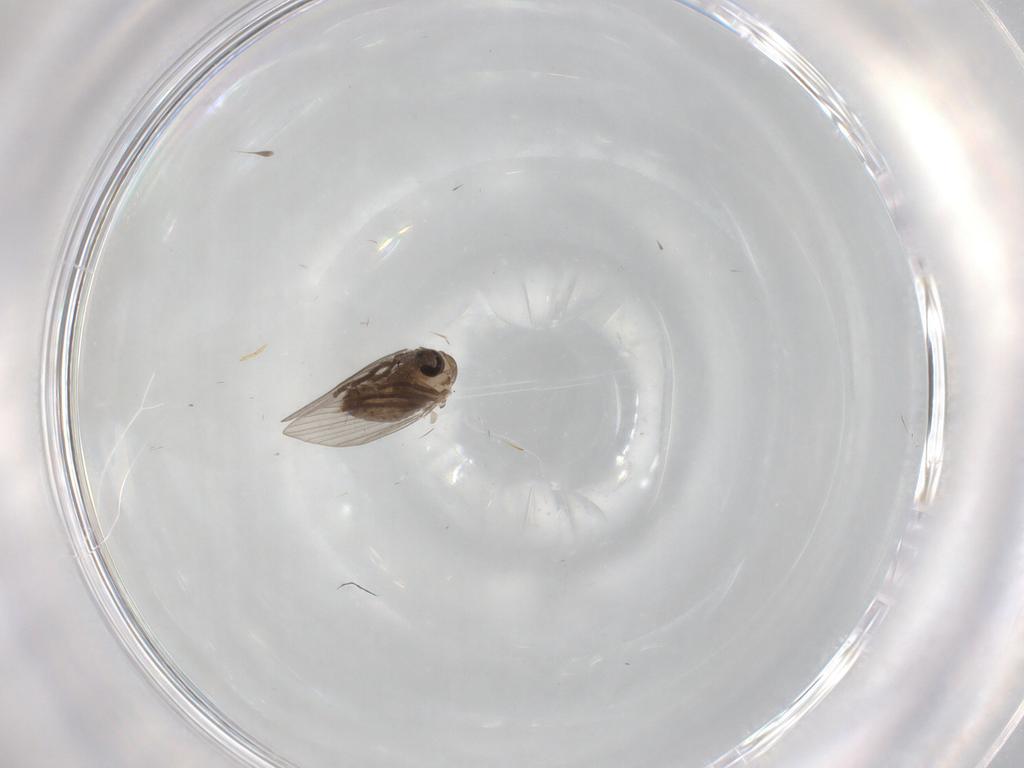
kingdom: Animalia
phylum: Arthropoda
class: Insecta
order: Diptera
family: Psychodidae
